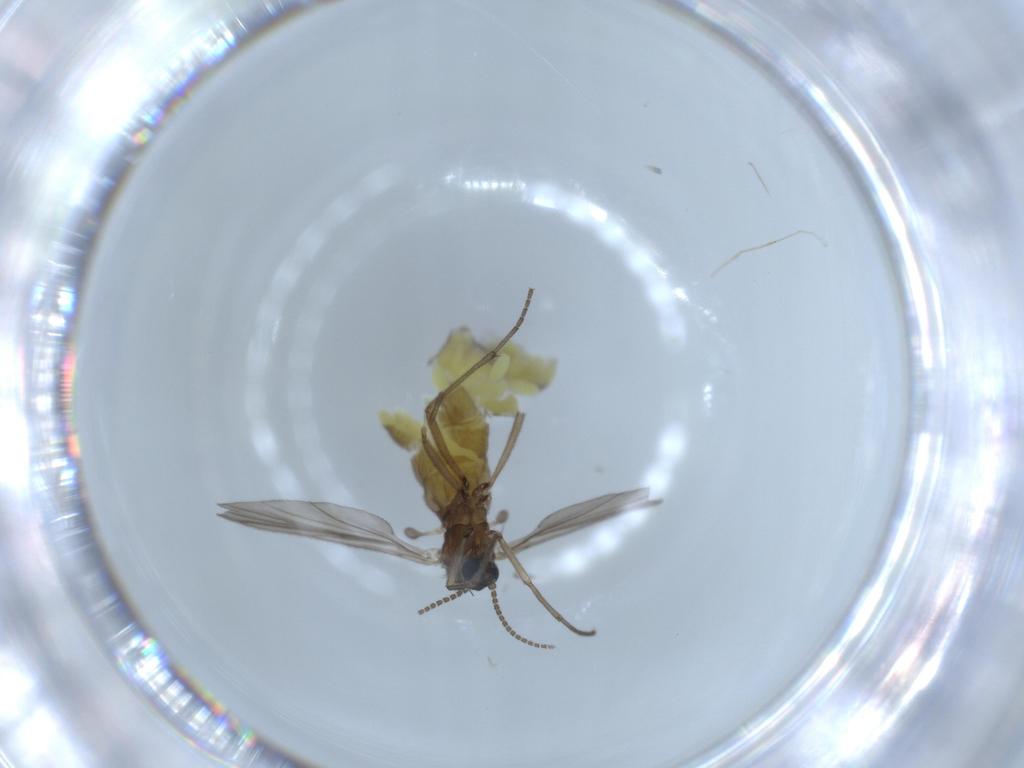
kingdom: Animalia
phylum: Arthropoda
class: Insecta
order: Diptera
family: Sciaridae
